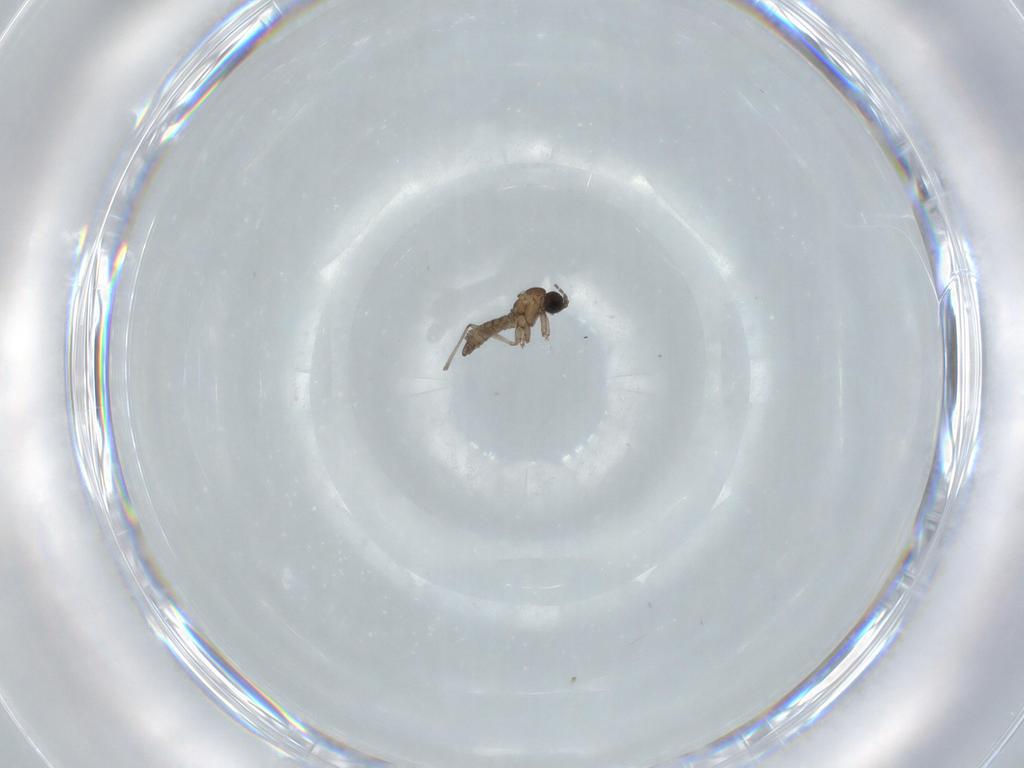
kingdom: Animalia
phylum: Arthropoda
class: Insecta
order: Diptera
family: Sciaridae
